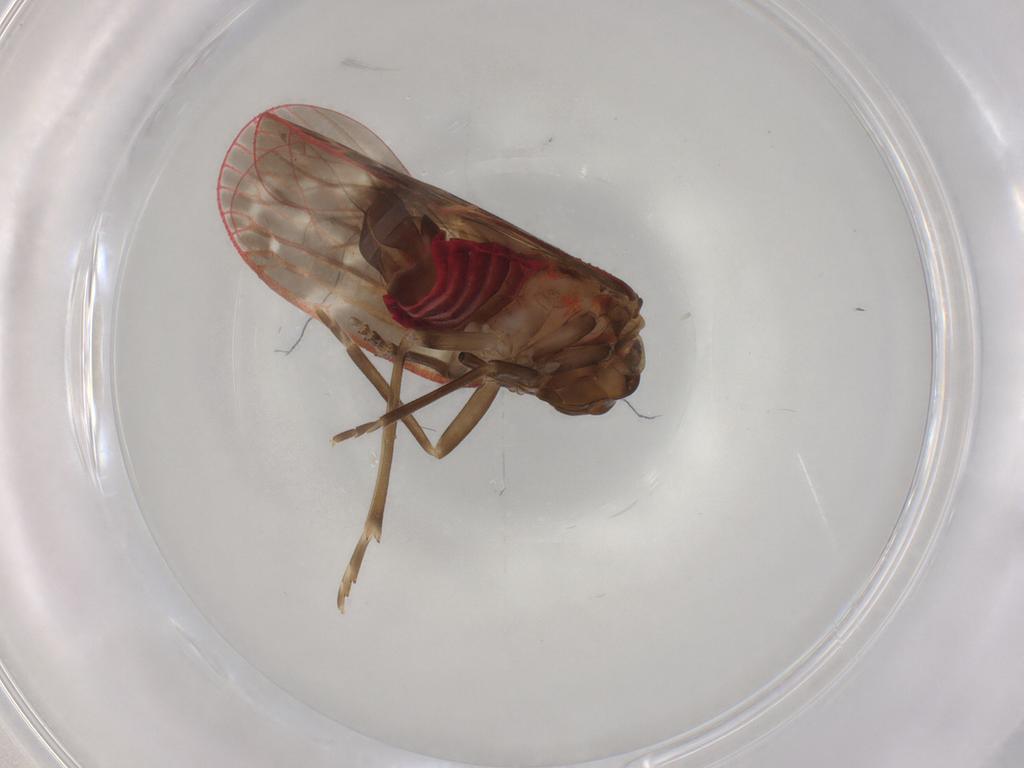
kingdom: Animalia
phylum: Arthropoda
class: Insecta
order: Hemiptera
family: Achilidae
